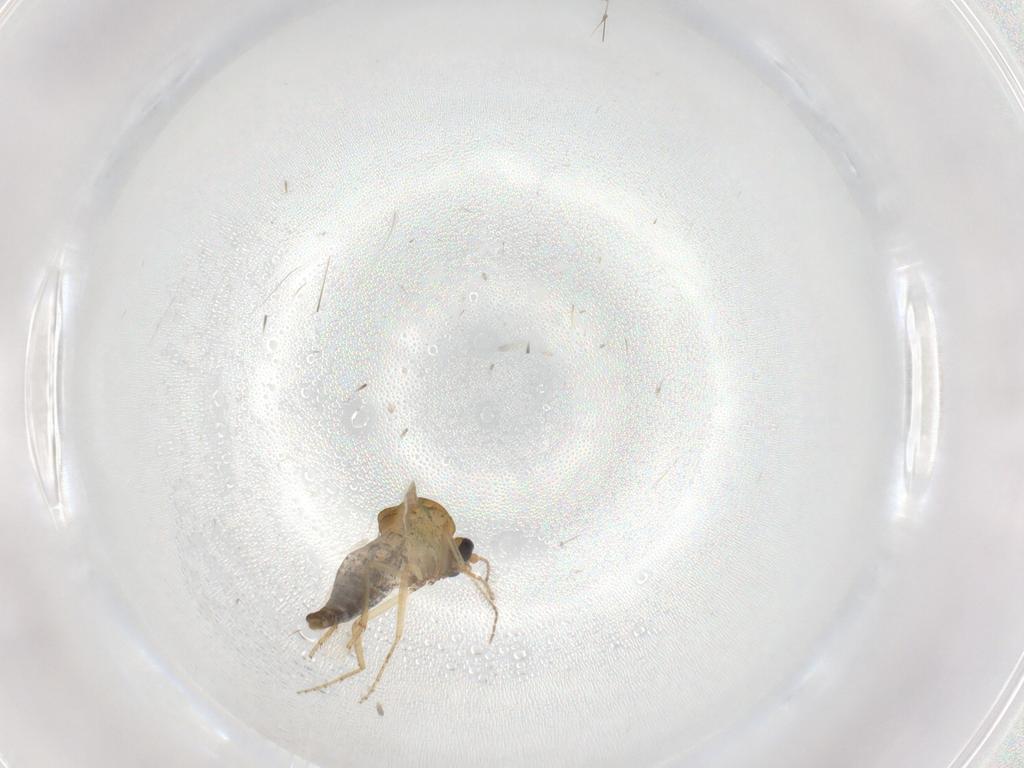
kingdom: Animalia
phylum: Arthropoda
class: Insecta
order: Diptera
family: Ceratopogonidae
